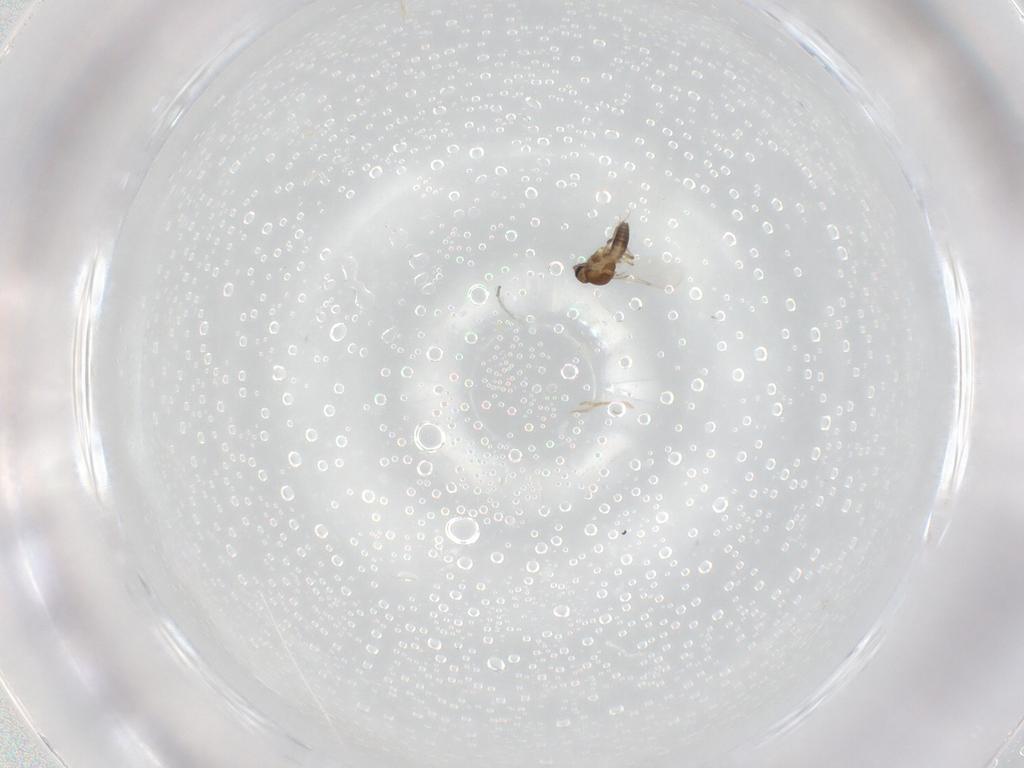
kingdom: Animalia
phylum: Arthropoda
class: Insecta
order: Diptera
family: Ceratopogonidae
